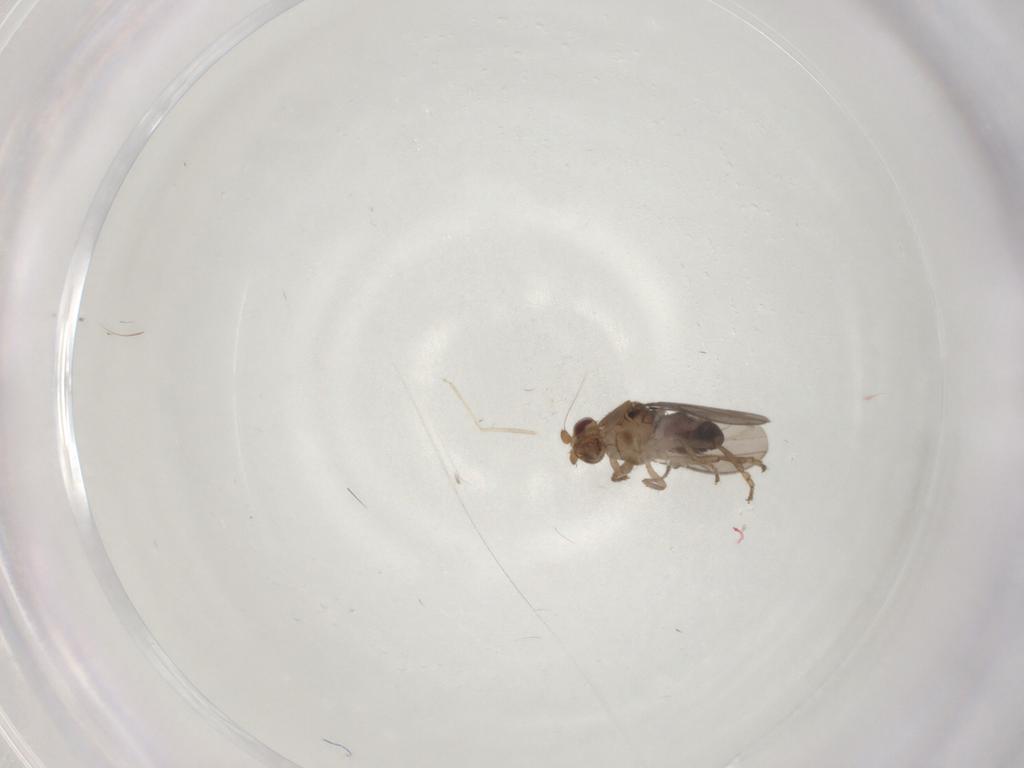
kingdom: Animalia
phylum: Arthropoda
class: Insecta
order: Diptera
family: Sphaeroceridae
